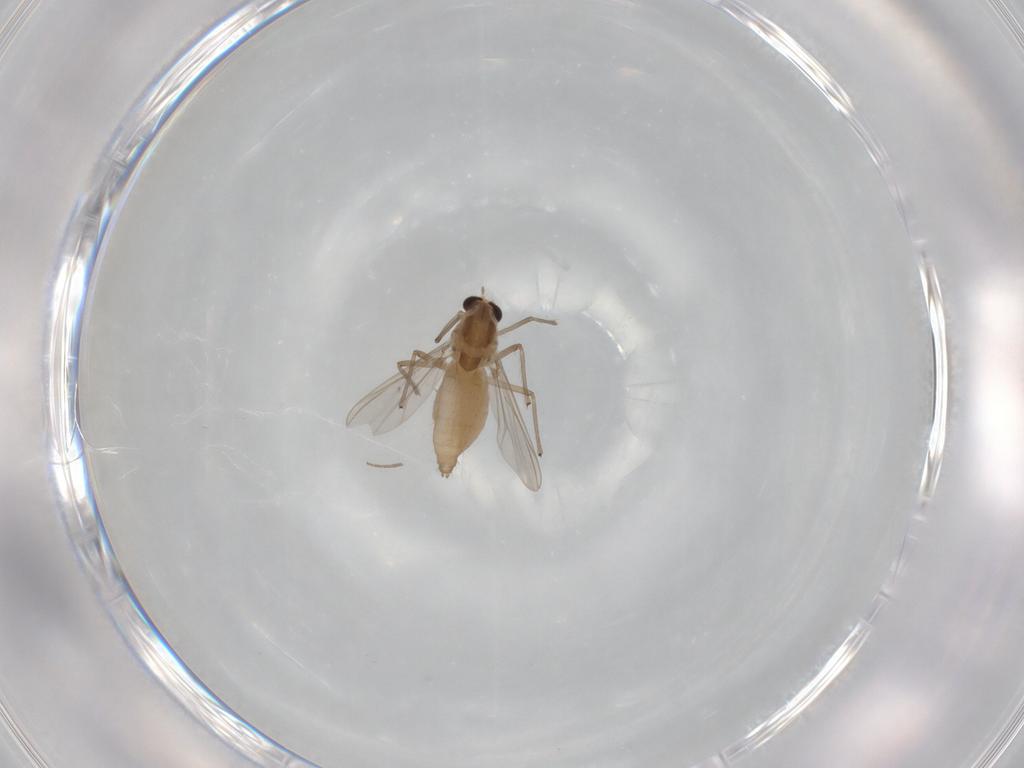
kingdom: Animalia
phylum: Arthropoda
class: Insecta
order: Diptera
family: Chironomidae
